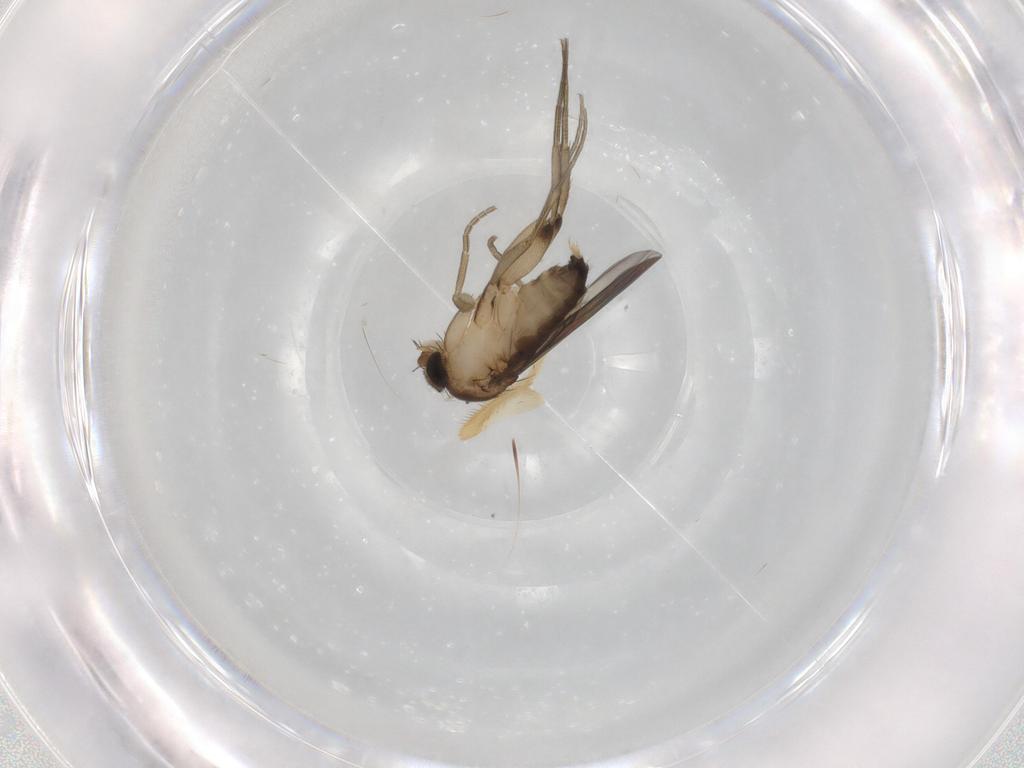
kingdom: Animalia
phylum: Arthropoda
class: Insecta
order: Diptera
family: Phoridae
